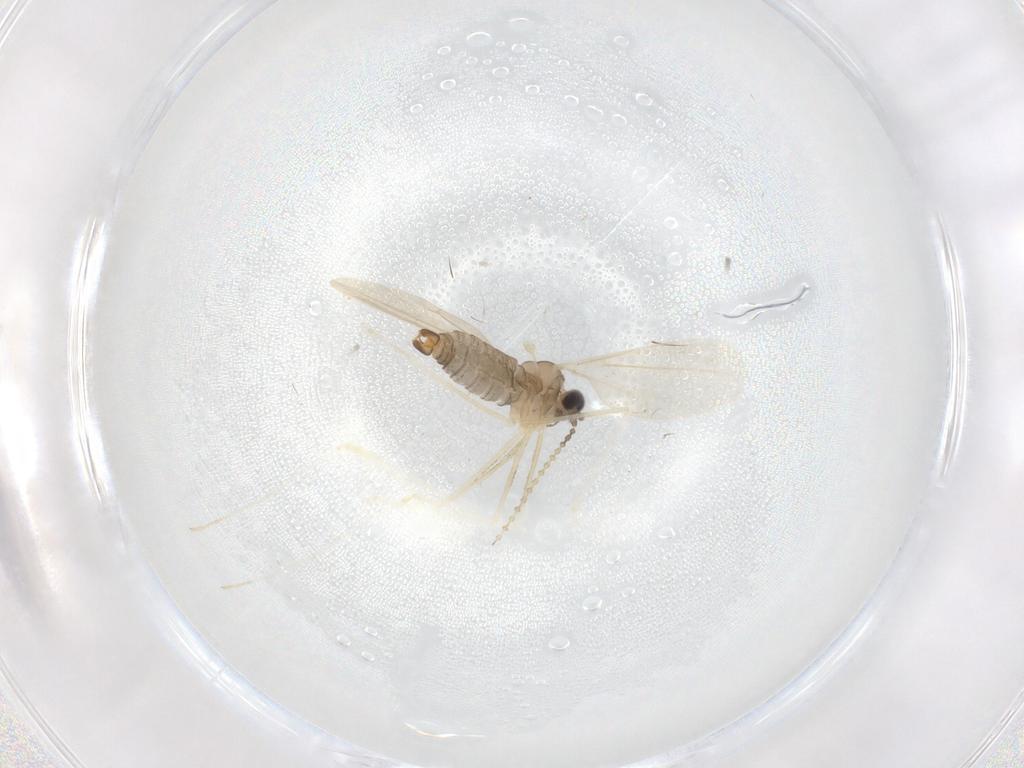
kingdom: Animalia
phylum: Arthropoda
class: Insecta
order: Diptera
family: Cecidomyiidae
